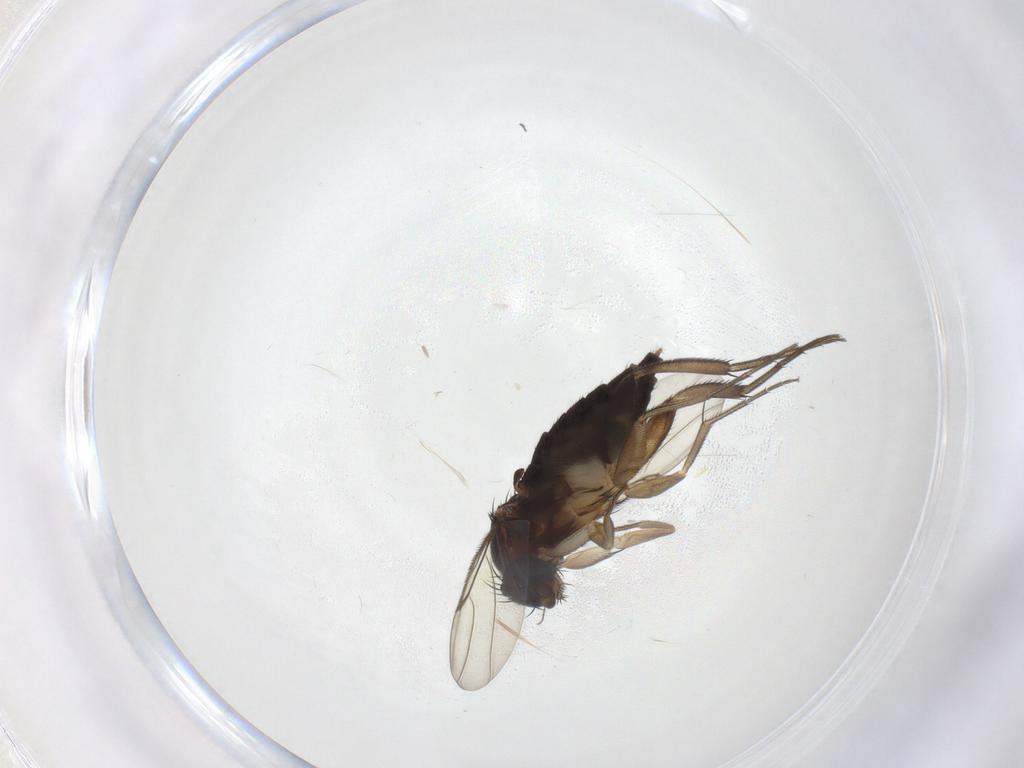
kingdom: Animalia
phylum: Arthropoda
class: Insecta
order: Diptera
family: Phoridae
